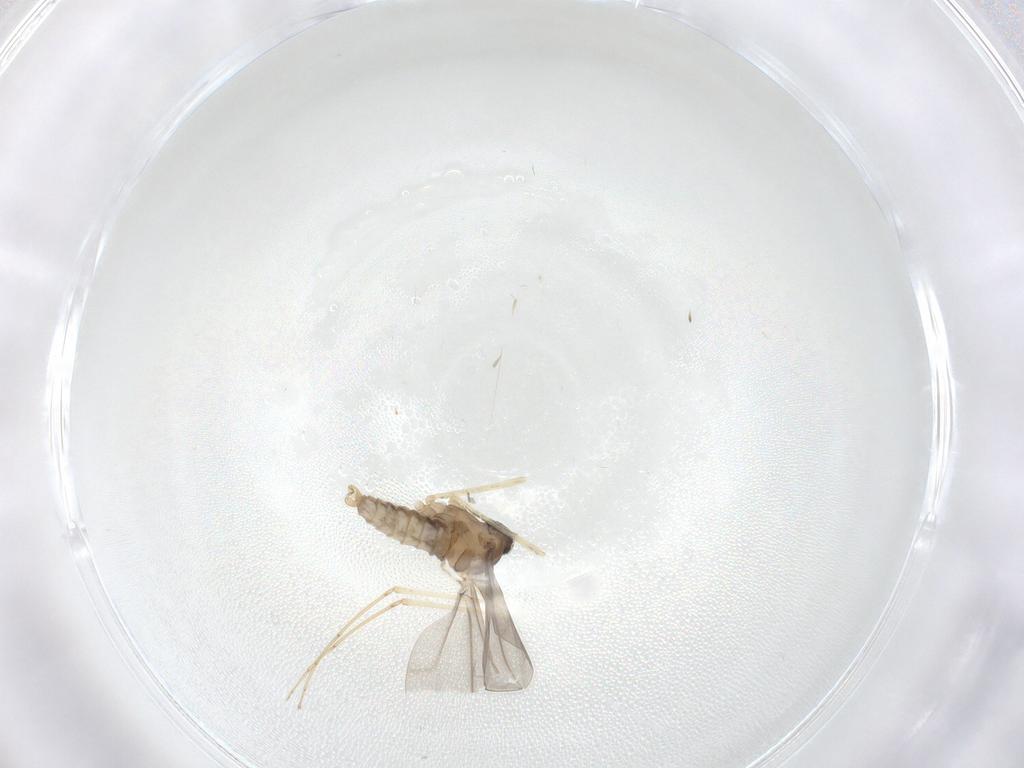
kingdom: Animalia
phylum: Arthropoda
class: Insecta
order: Diptera
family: Cecidomyiidae
